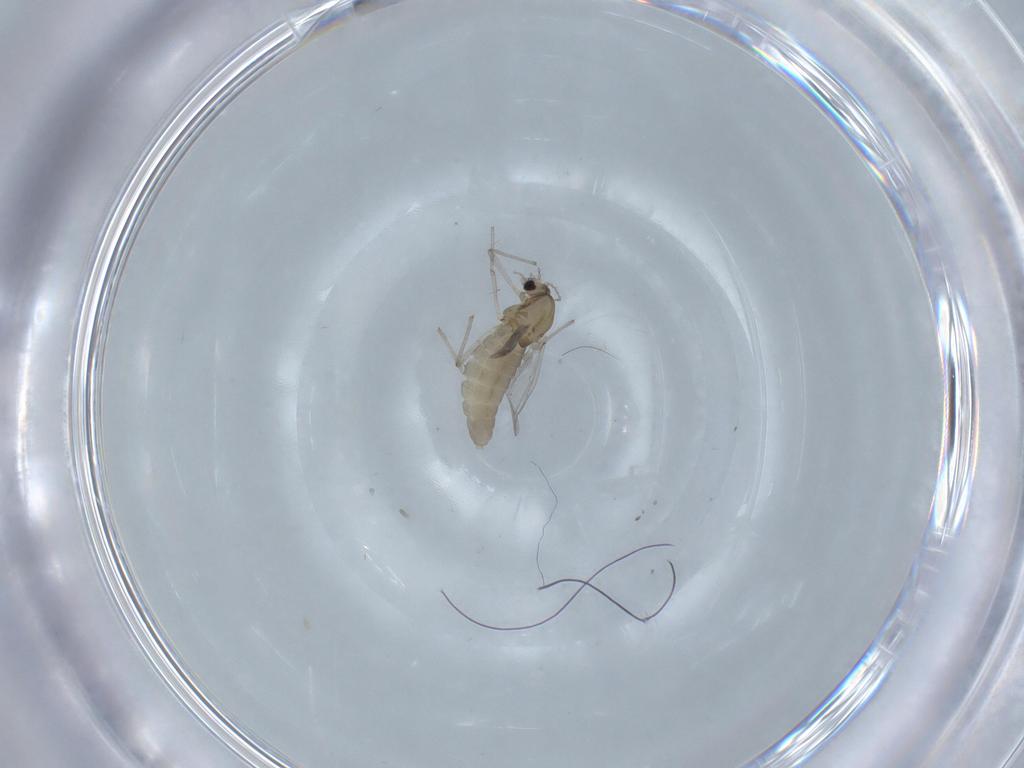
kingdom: Animalia
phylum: Arthropoda
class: Insecta
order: Diptera
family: Chironomidae
